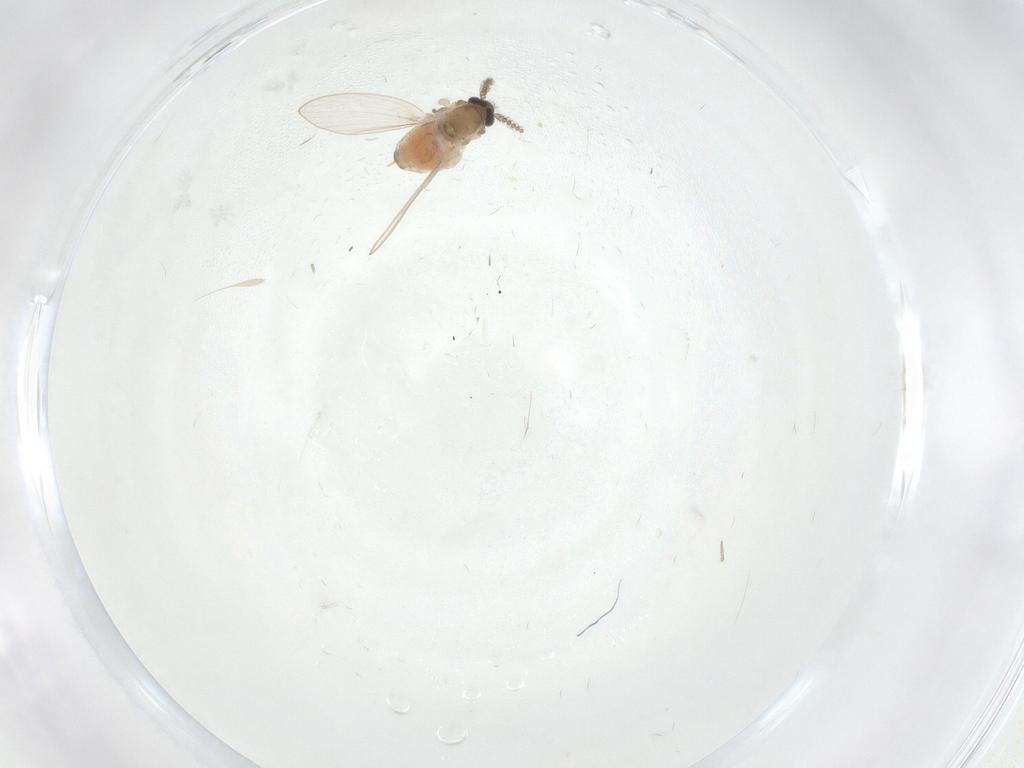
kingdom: Animalia
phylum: Arthropoda
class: Insecta
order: Diptera
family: Psychodidae
